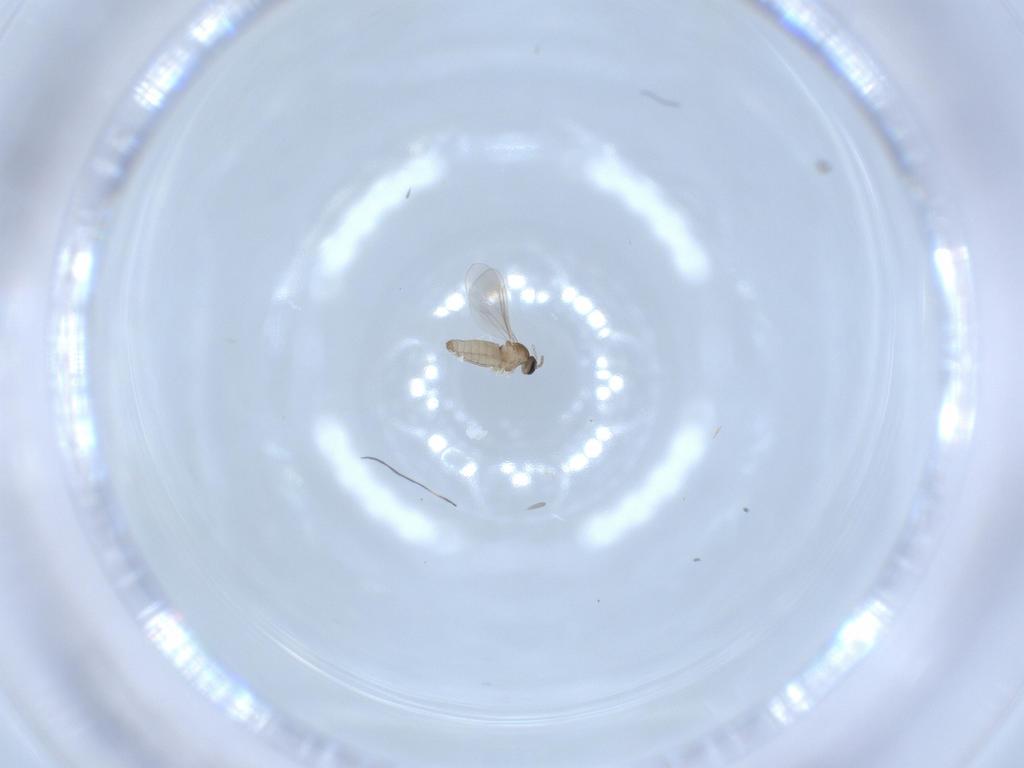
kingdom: Animalia
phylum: Arthropoda
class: Insecta
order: Diptera
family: Cecidomyiidae
